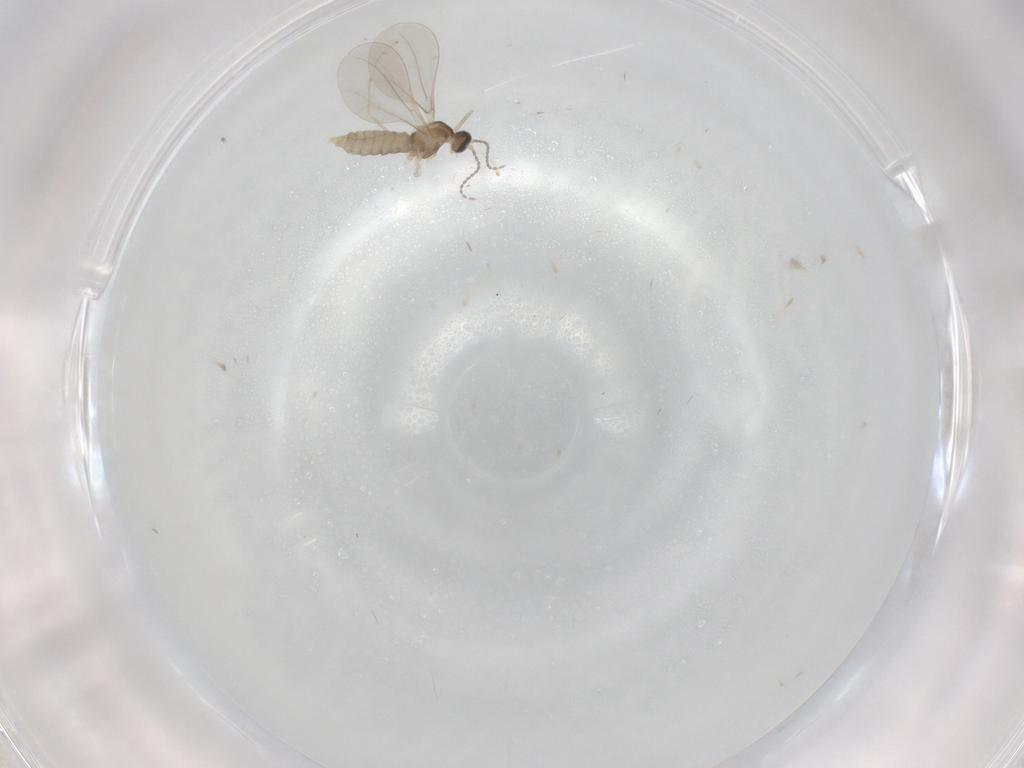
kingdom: Animalia
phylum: Arthropoda
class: Insecta
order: Diptera
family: Cecidomyiidae
